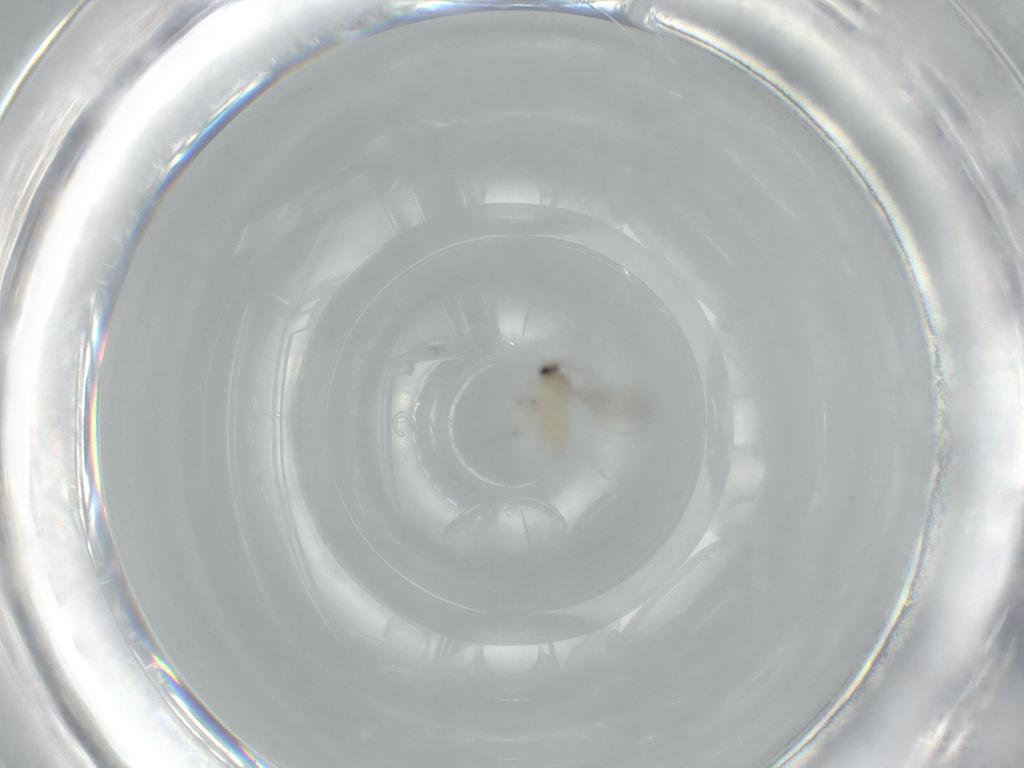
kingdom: Animalia
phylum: Arthropoda
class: Insecta
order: Diptera
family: Cecidomyiidae
